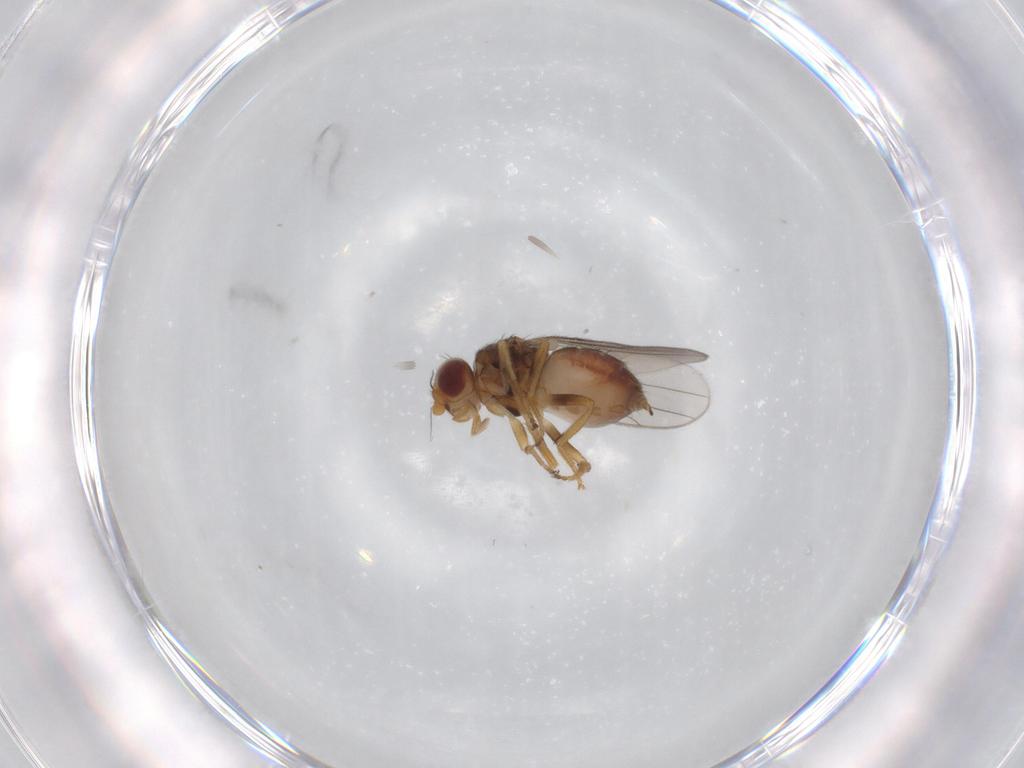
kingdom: Animalia
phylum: Arthropoda
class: Insecta
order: Diptera
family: Chloropidae
